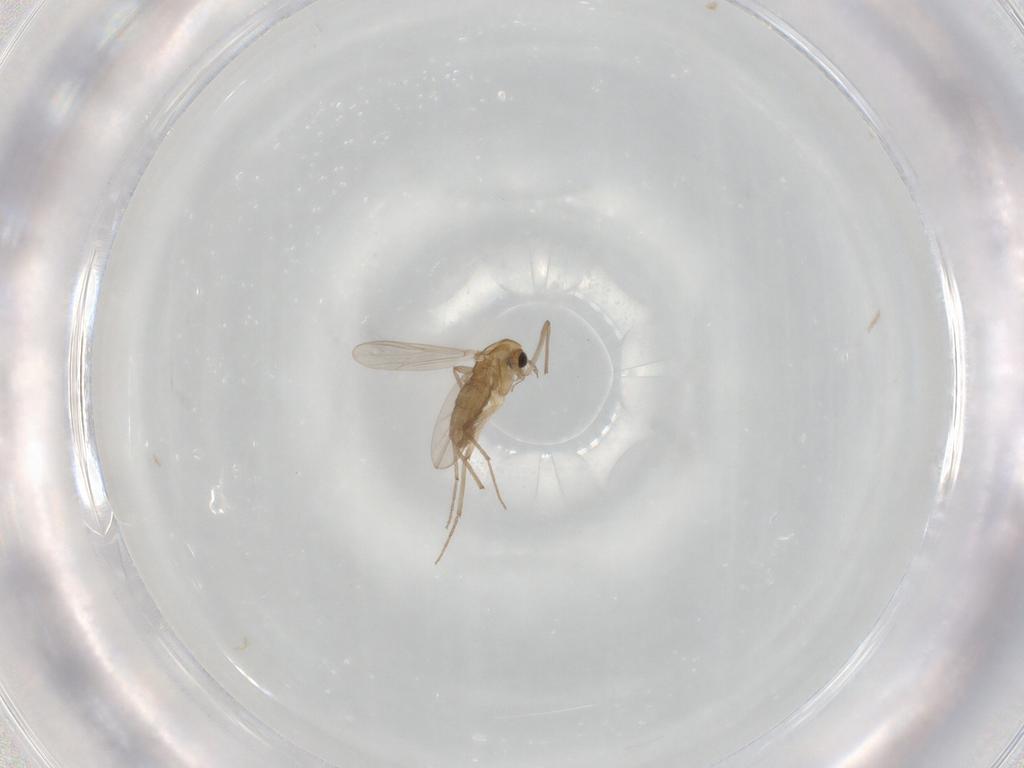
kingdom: Animalia
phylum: Arthropoda
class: Insecta
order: Diptera
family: Chironomidae
